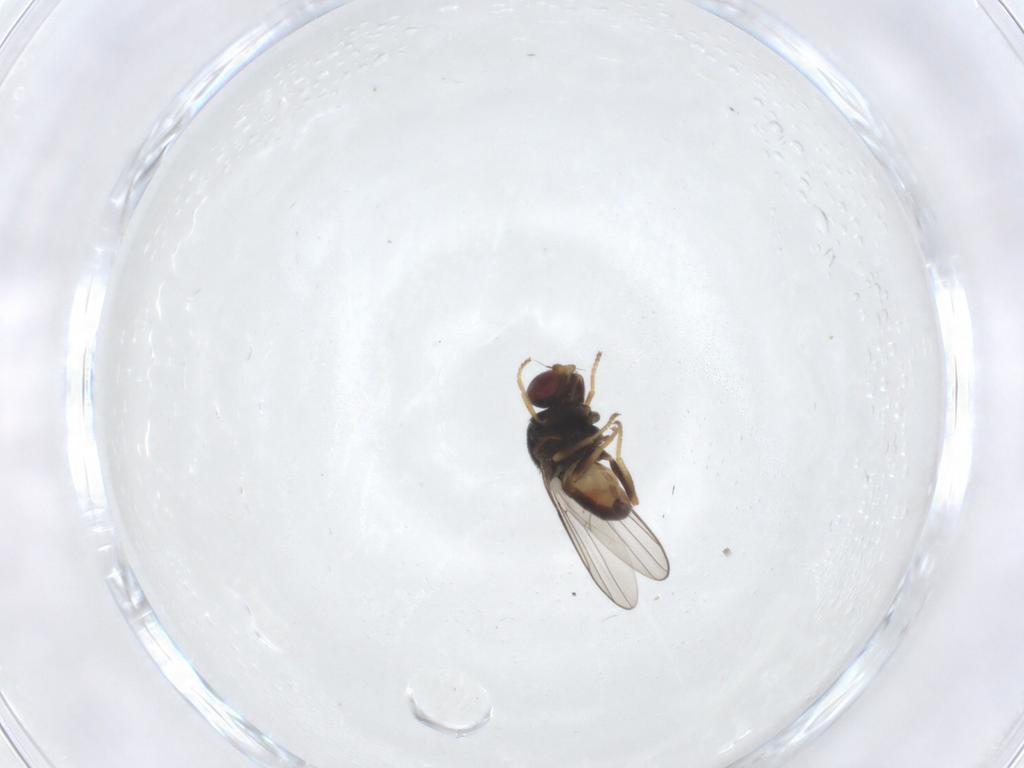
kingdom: Animalia
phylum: Arthropoda
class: Insecta
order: Diptera
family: Chloropidae
